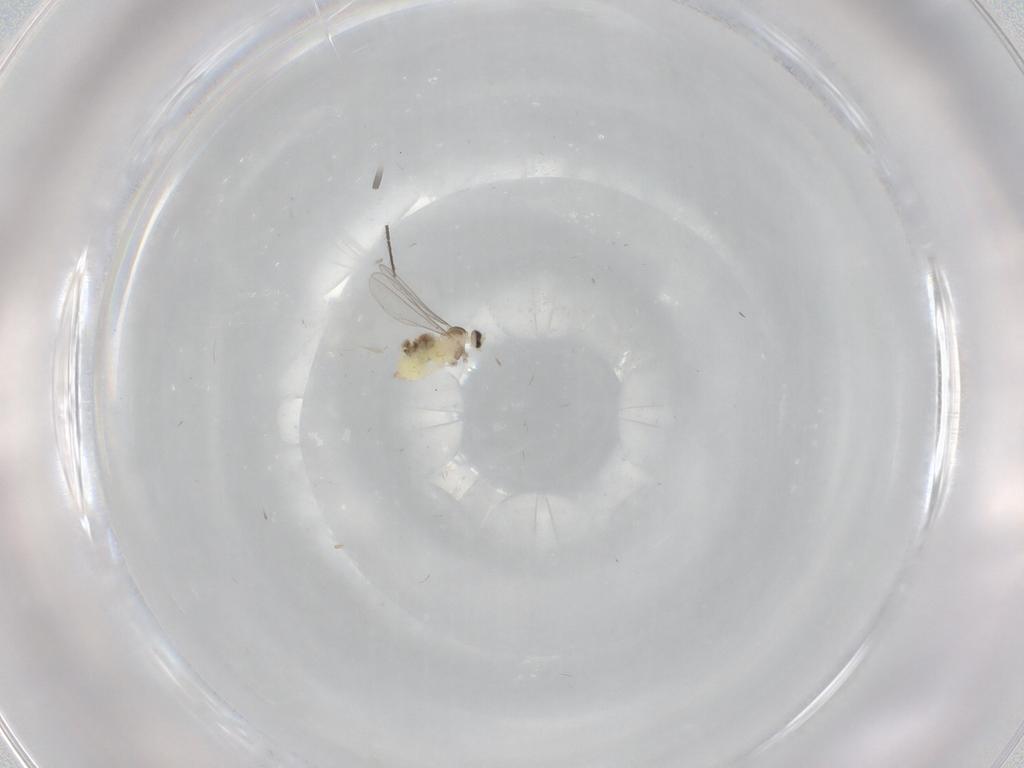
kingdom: Animalia
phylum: Arthropoda
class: Insecta
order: Diptera
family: Cecidomyiidae
